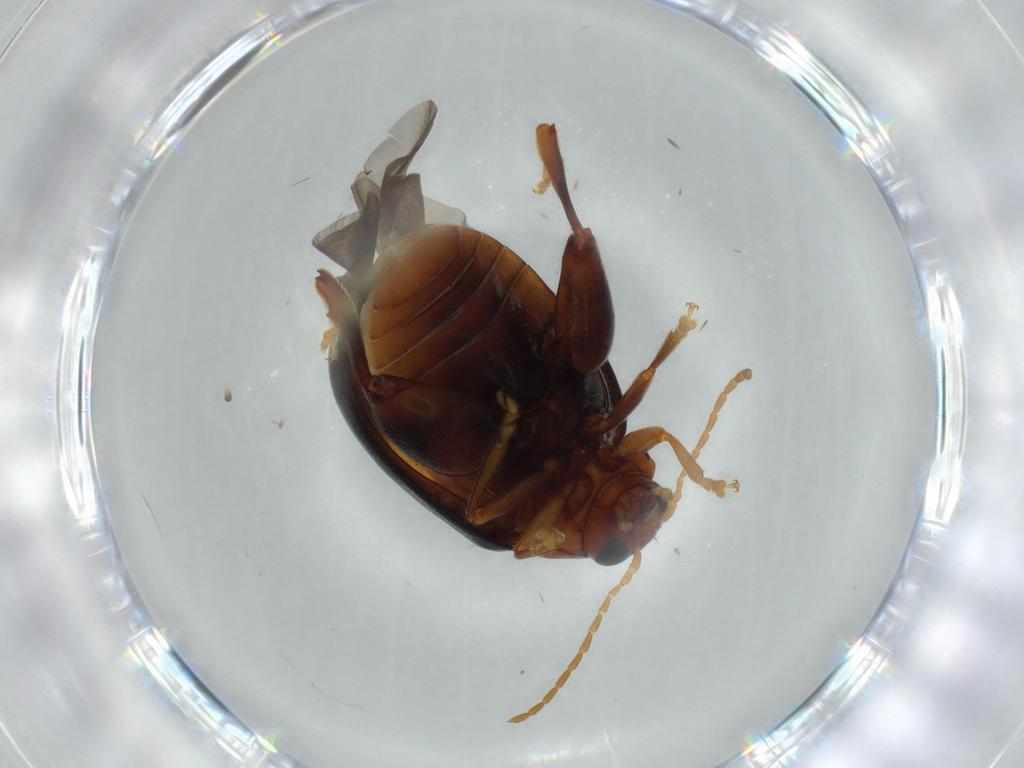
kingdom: Animalia
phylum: Arthropoda
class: Insecta
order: Coleoptera
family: Chrysomelidae
